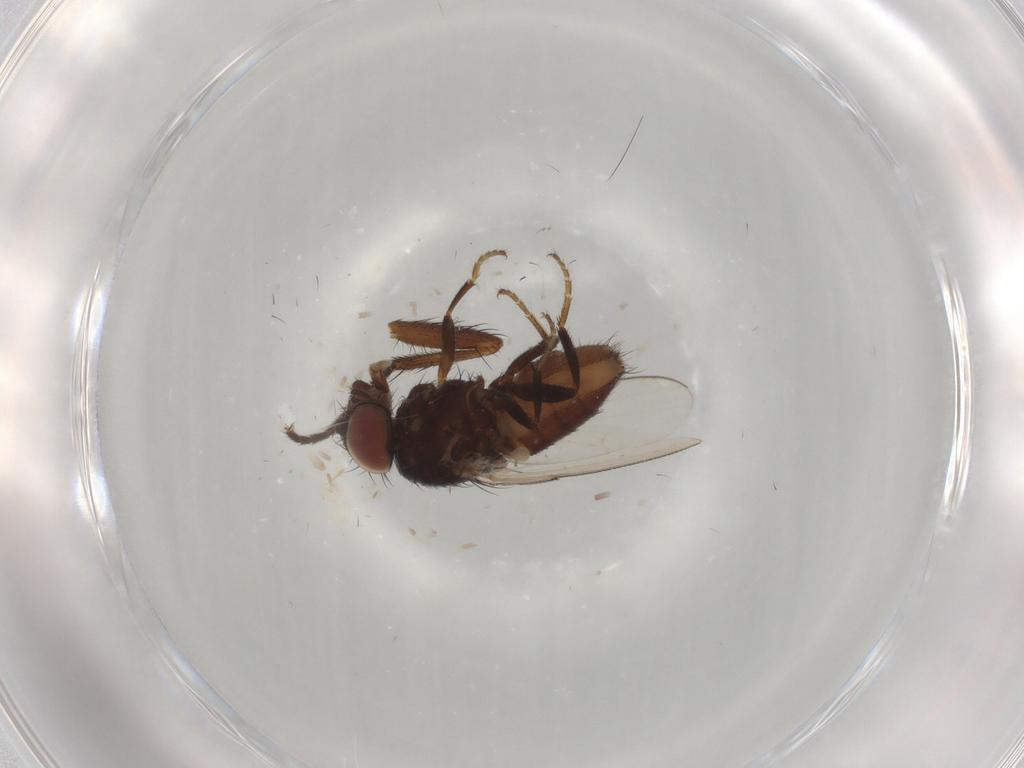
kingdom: Animalia
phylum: Arthropoda
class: Insecta
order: Diptera
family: Milichiidae
